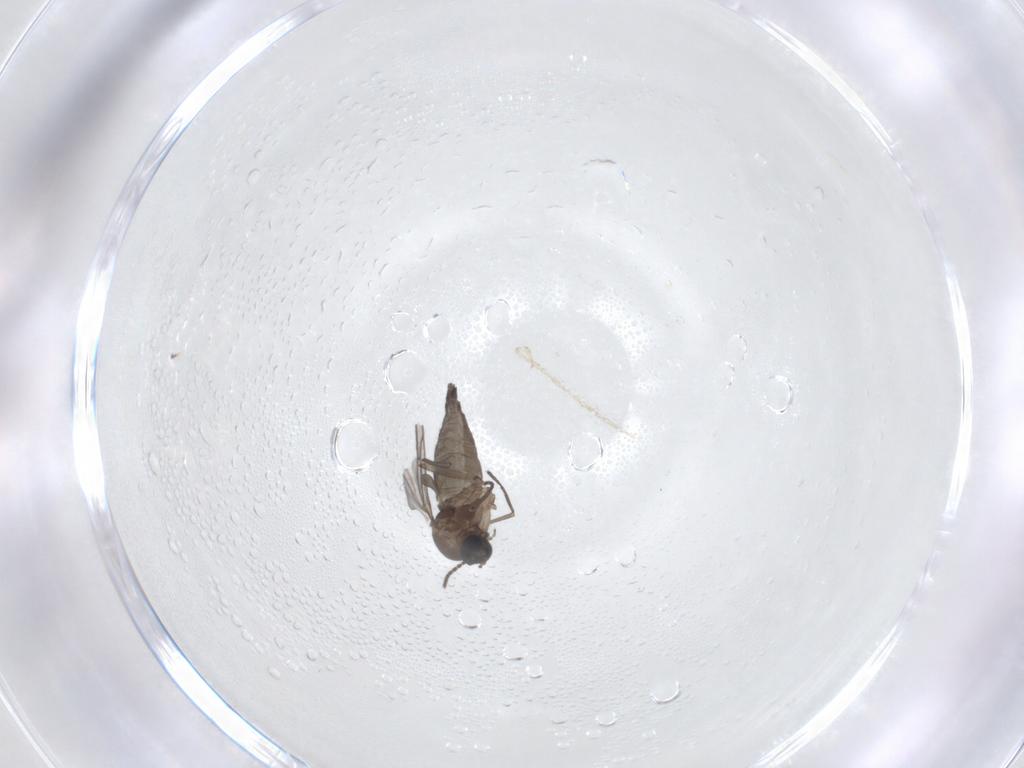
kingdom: Animalia
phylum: Arthropoda
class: Insecta
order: Diptera
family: Sciaridae
